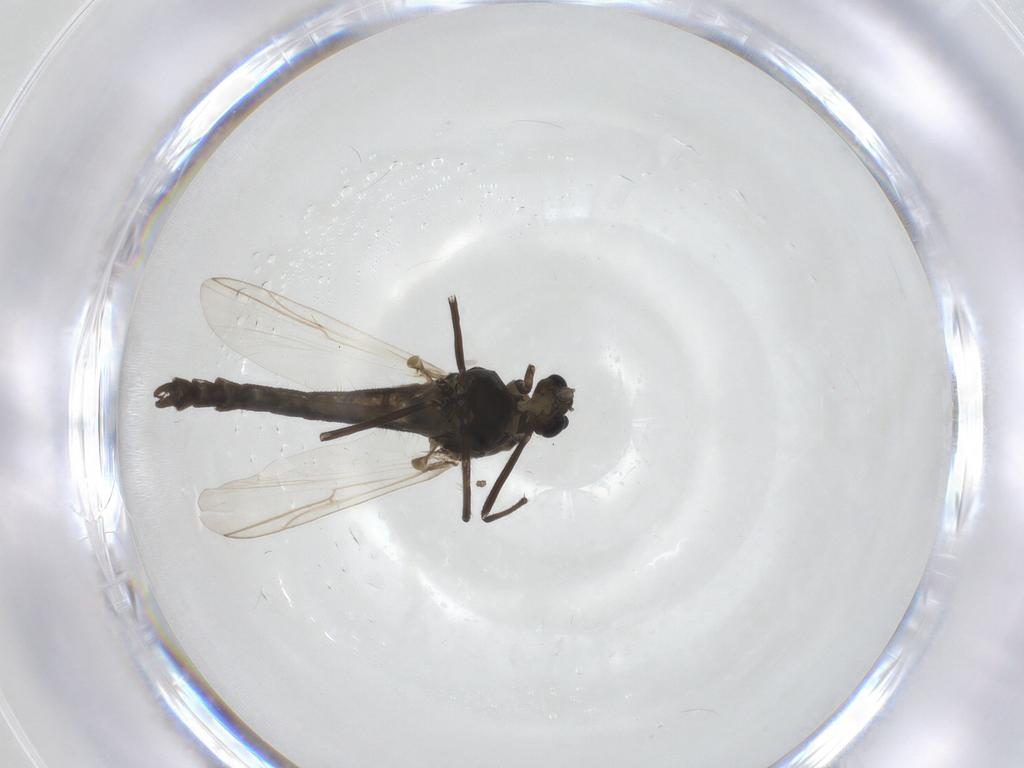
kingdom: Animalia
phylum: Arthropoda
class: Insecta
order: Diptera
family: Chironomidae
